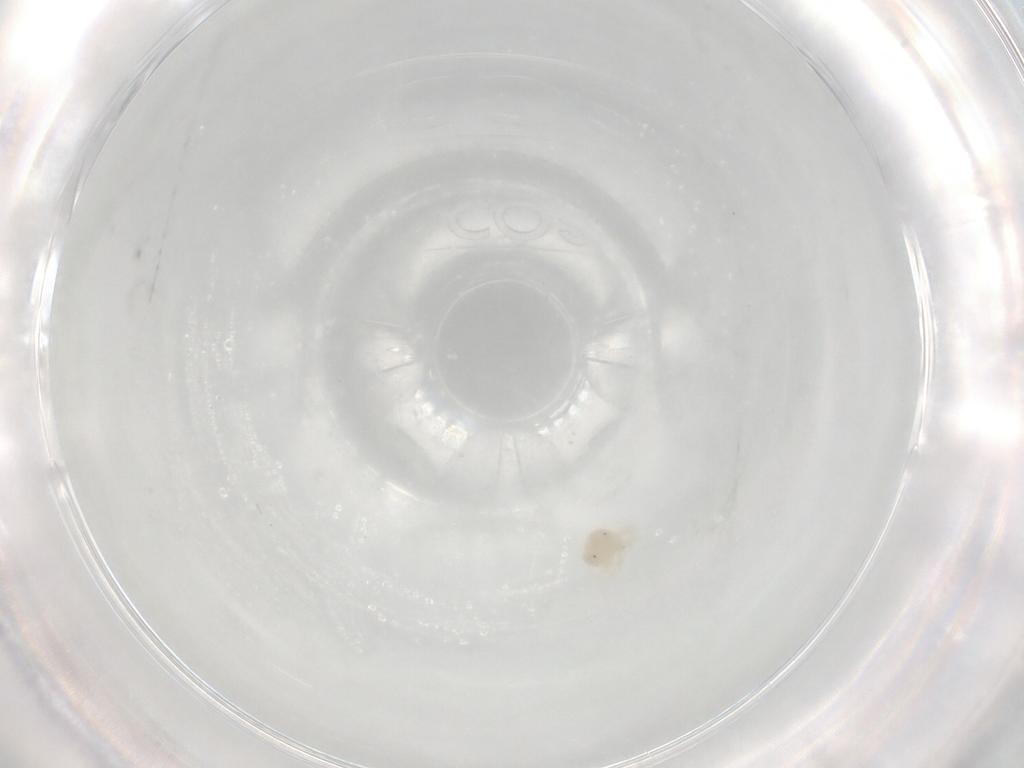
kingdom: Animalia
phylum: Arthropoda
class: Arachnida
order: Trombidiformes
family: Anystidae
